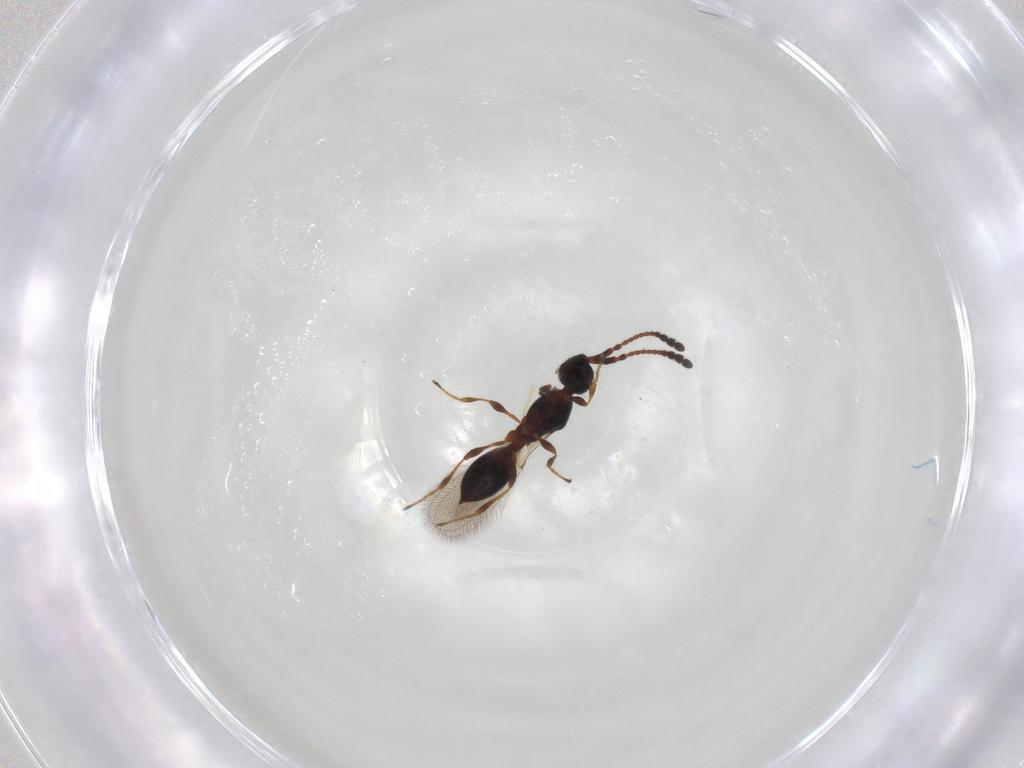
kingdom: Animalia
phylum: Arthropoda
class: Insecta
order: Hymenoptera
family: Diapriidae
